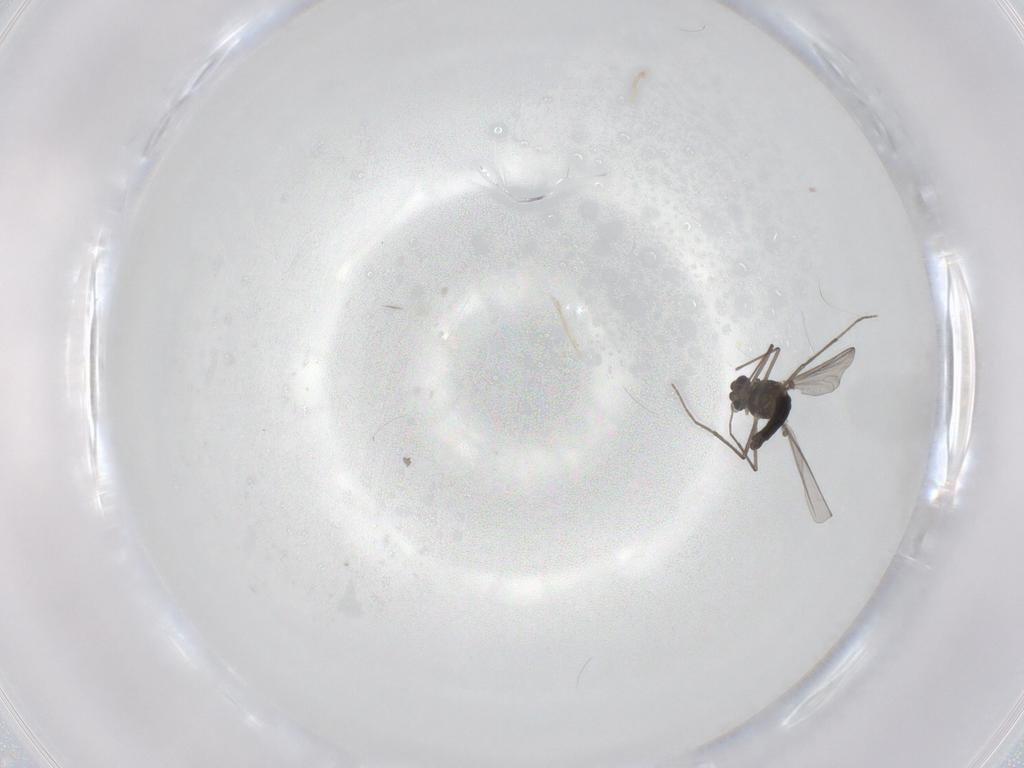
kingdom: Animalia
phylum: Arthropoda
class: Insecta
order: Diptera
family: Chironomidae
